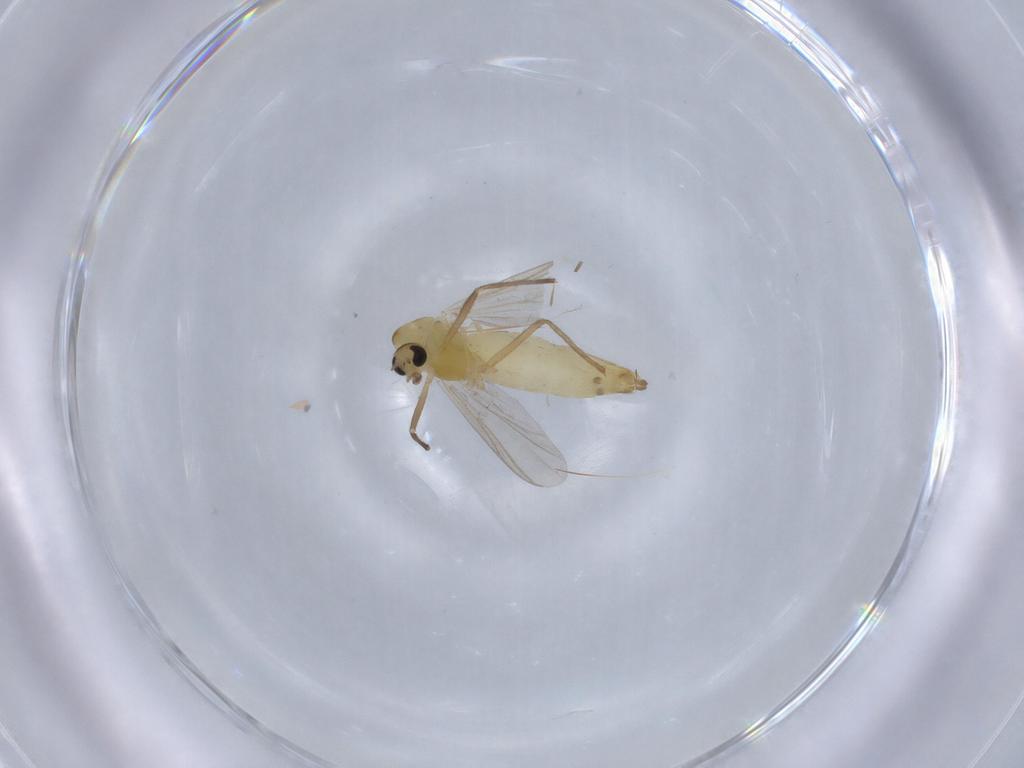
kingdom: Animalia
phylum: Arthropoda
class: Insecta
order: Diptera
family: Chironomidae
